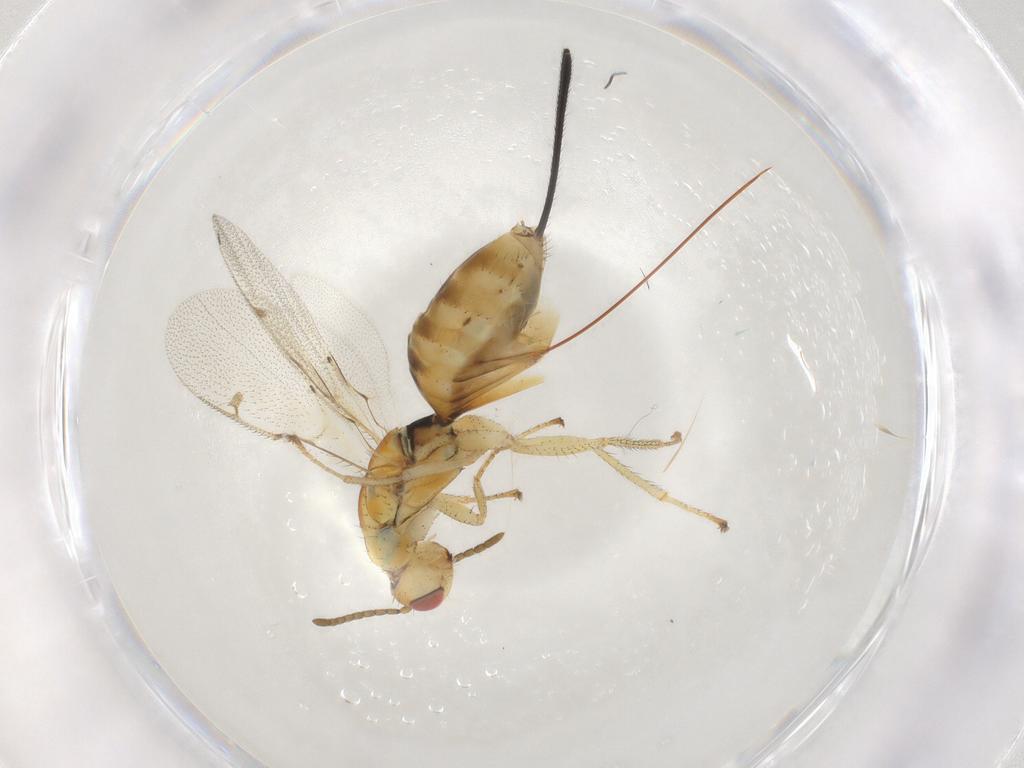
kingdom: Animalia
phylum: Arthropoda
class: Insecta
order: Hymenoptera
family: Megastigmidae
